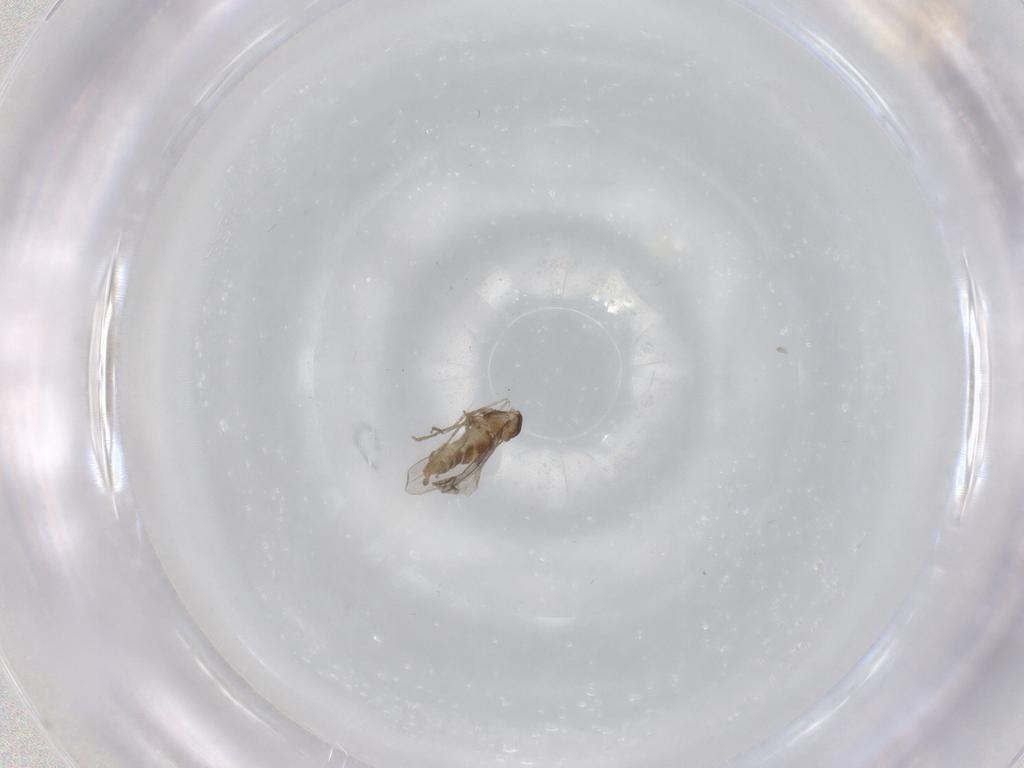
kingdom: Animalia
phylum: Arthropoda
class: Insecta
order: Diptera
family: Cecidomyiidae
